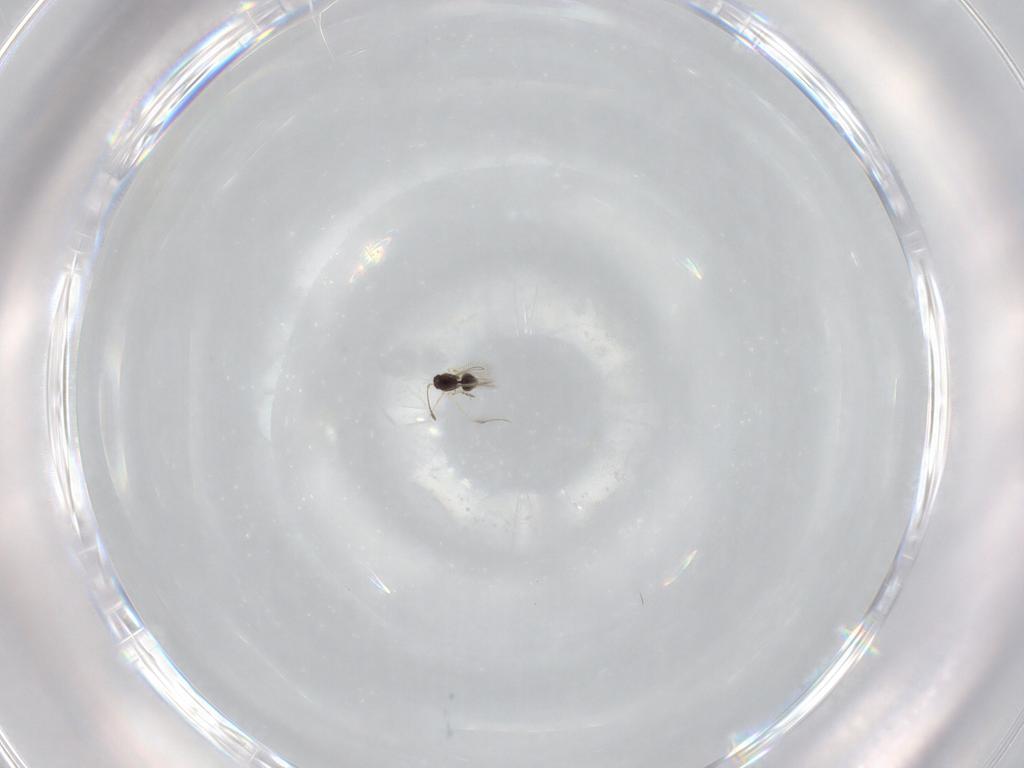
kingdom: Animalia
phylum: Arthropoda
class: Insecta
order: Hymenoptera
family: Mymaridae
